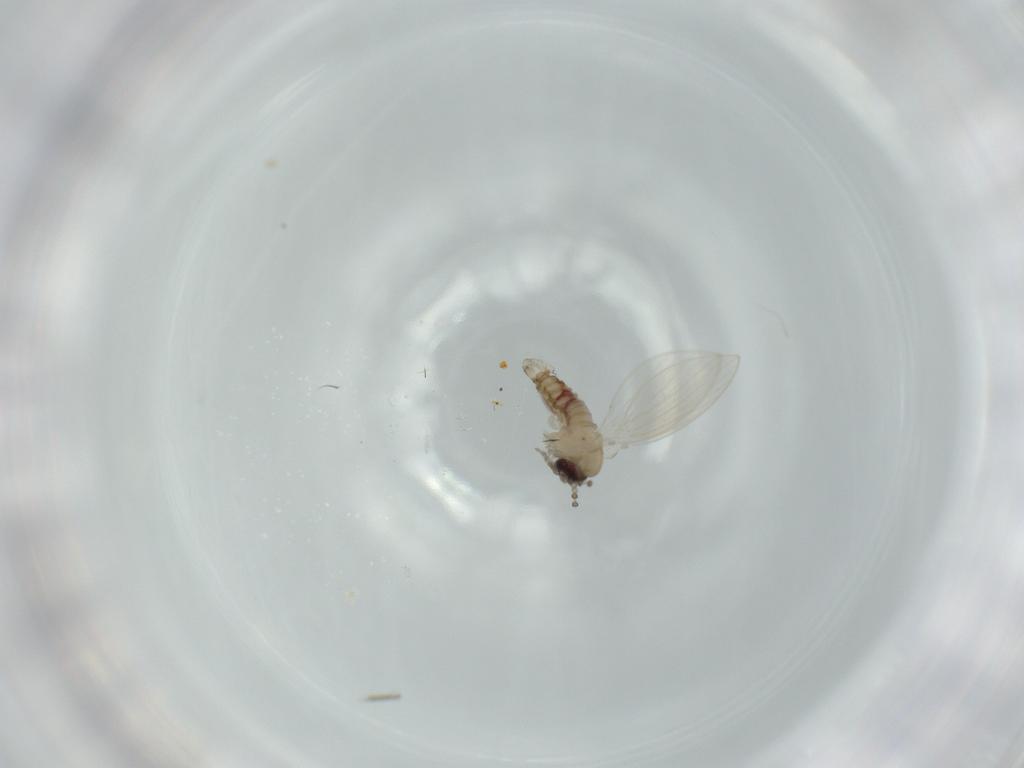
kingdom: Animalia
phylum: Arthropoda
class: Insecta
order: Diptera
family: Psychodidae
